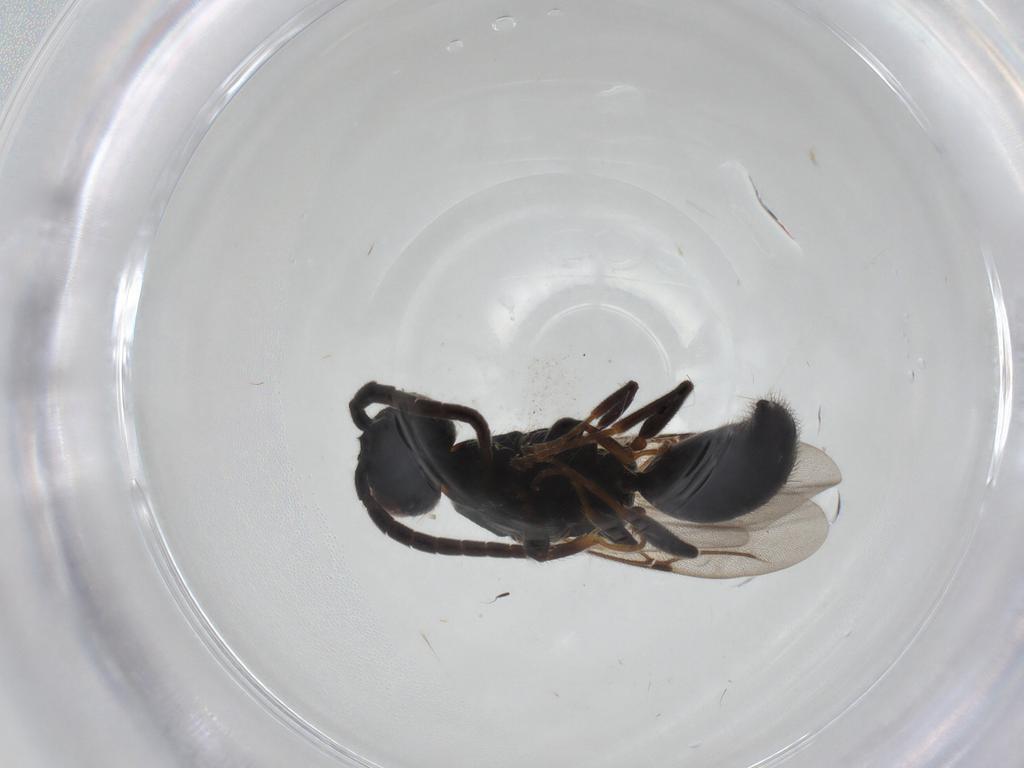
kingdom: Animalia
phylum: Arthropoda
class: Insecta
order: Hymenoptera
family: Bethylidae
